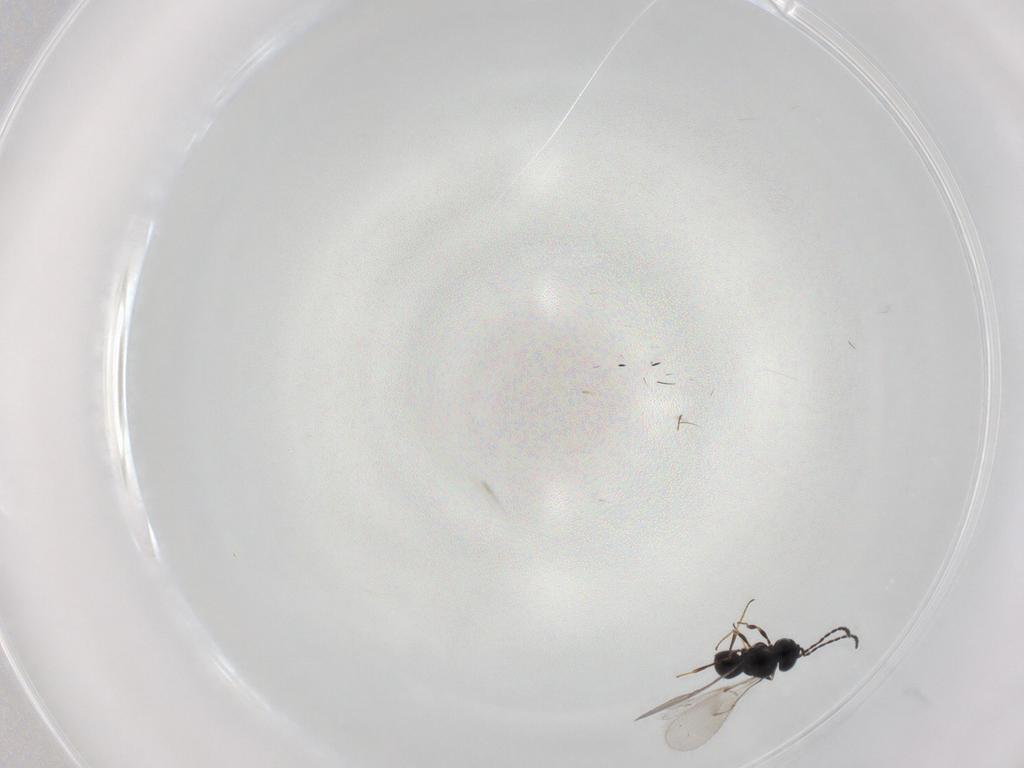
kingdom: Animalia
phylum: Arthropoda
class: Insecta
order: Hymenoptera
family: Scelionidae
